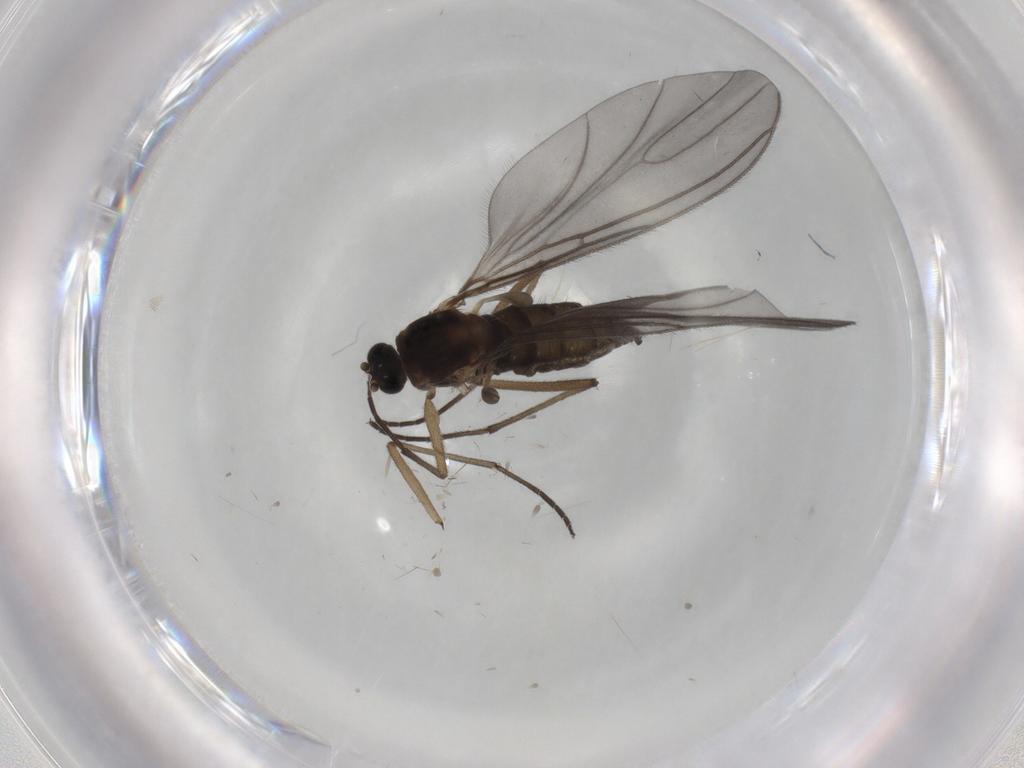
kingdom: Animalia
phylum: Arthropoda
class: Insecta
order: Diptera
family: Sciaridae
